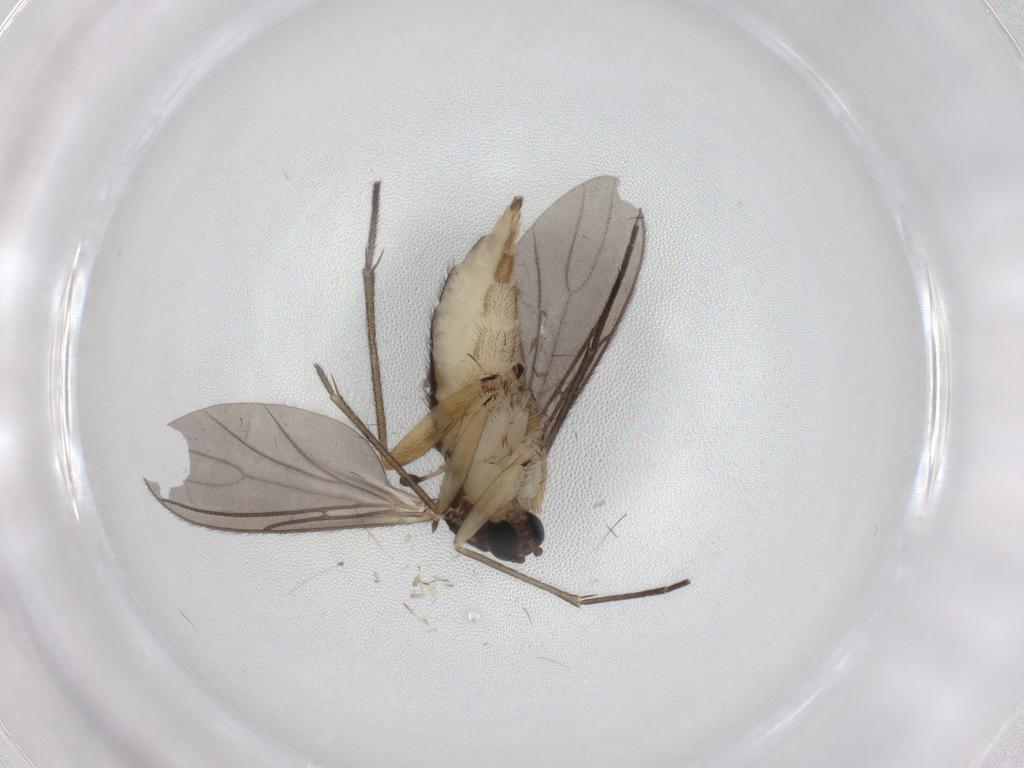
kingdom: Animalia
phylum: Arthropoda
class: Insecta
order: Diptera
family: Sciaridae
